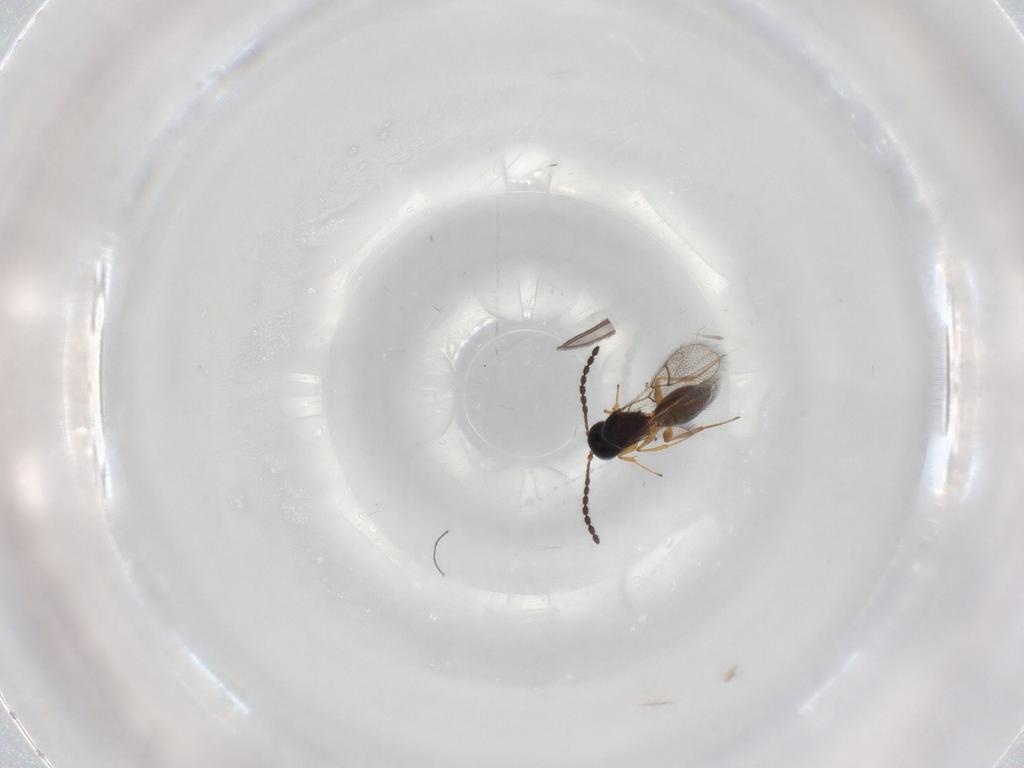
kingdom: Animalia
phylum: Arthropoda
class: Insecta
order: Hymenoptera
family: Figitidae
